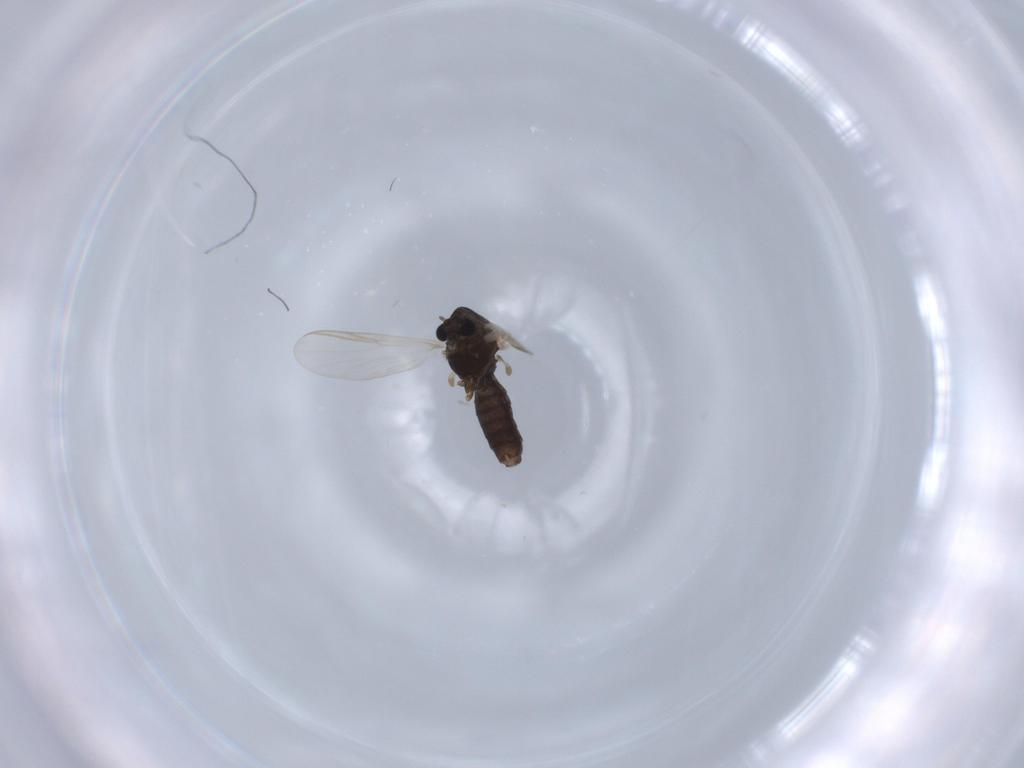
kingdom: Animalia
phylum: Arthropoda
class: Insecta
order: Diptera
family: Chironomidae
